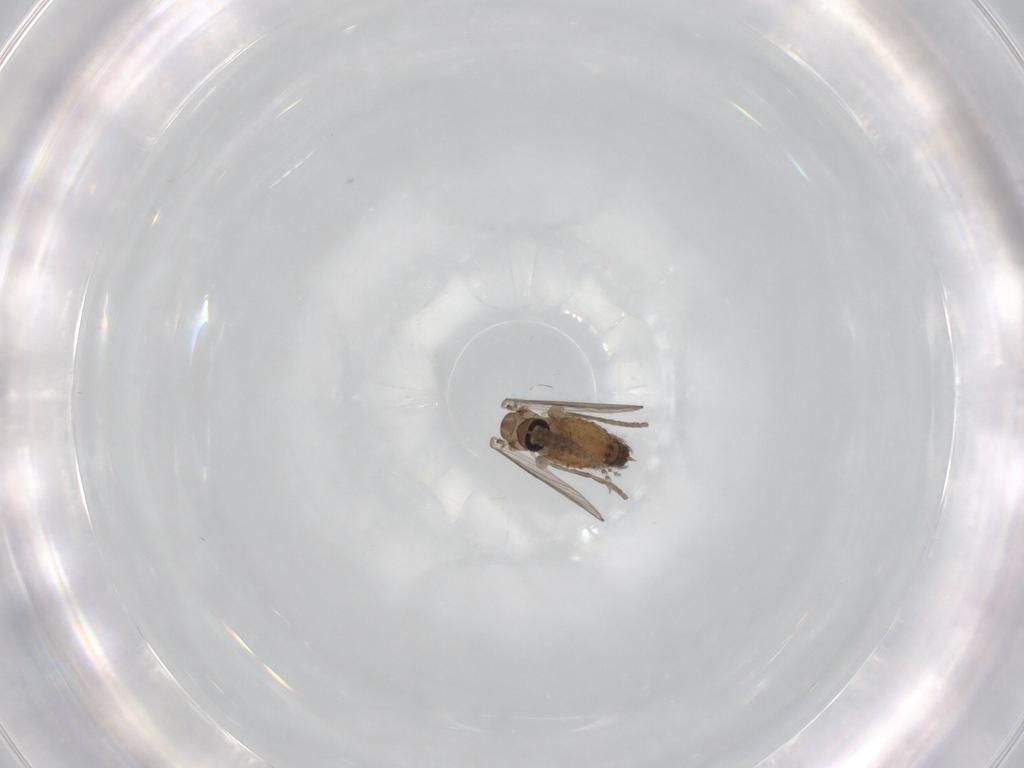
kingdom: Animalia
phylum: Arthropoda
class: Insecta
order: Diptera
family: Psychodidae
